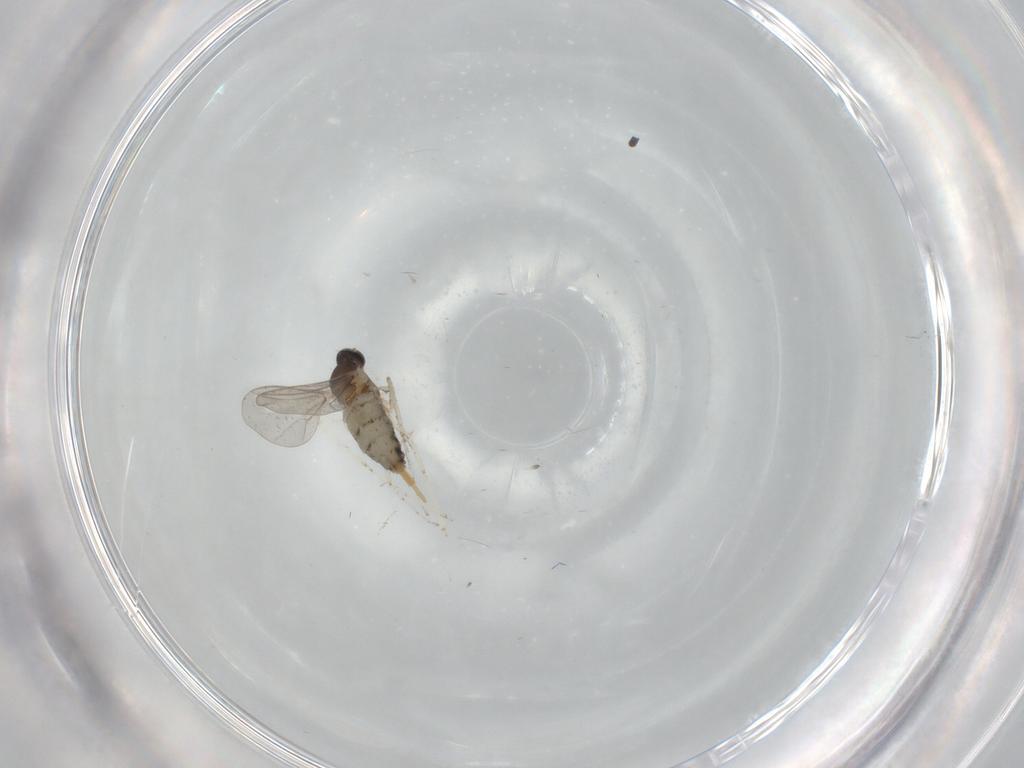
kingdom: Animalia
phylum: Arthropoda
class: Insecta
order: Diptera
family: Cecidomyiidae
